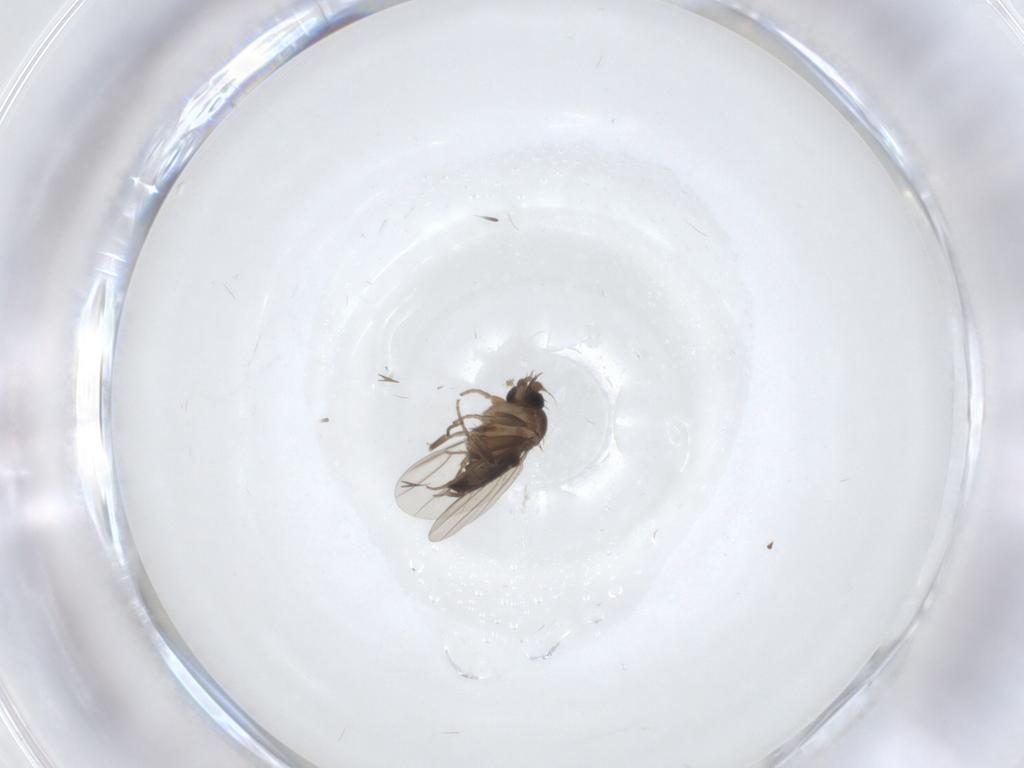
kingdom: Animalia
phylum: Arthropoda
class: Insecta
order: Diptera
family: Phoridae
